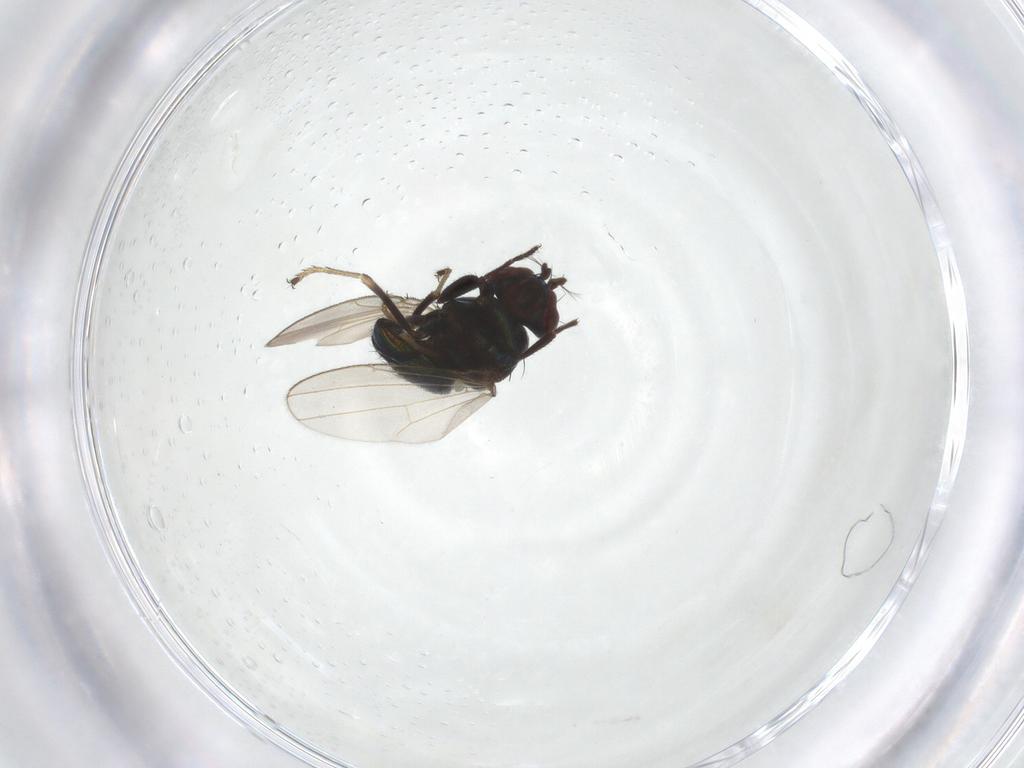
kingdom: Animalia
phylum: Arthropoda
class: Insecta
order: Diptera
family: Ephydridae
